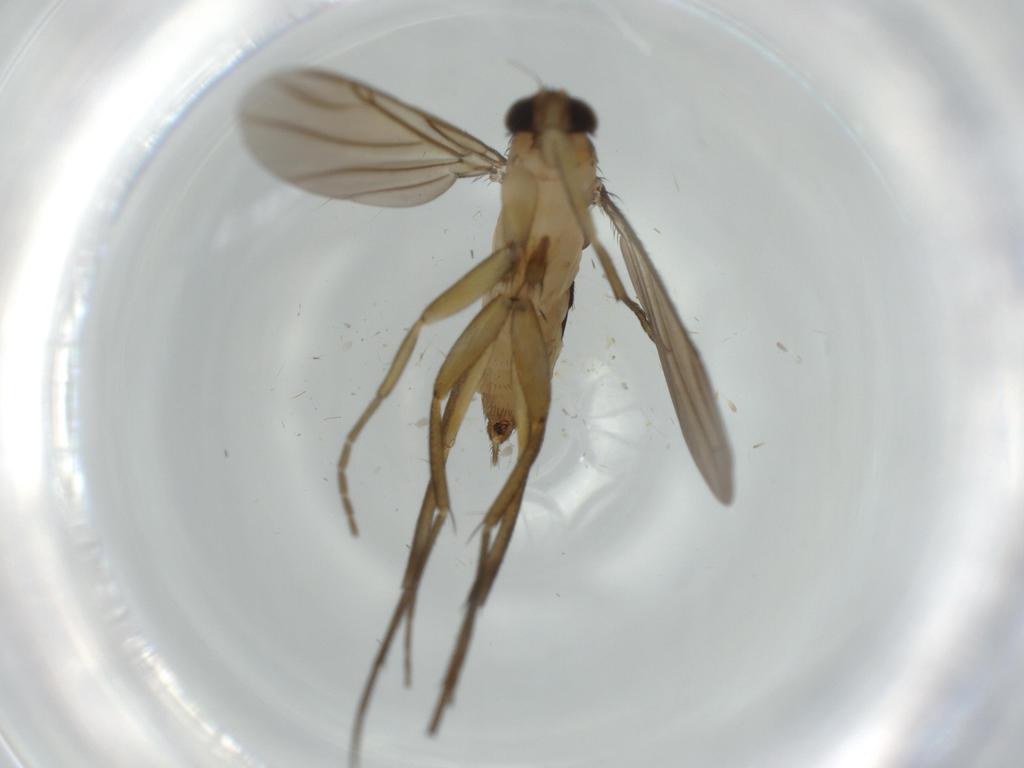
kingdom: Animalia
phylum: Arthropoda
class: Insecta
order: Diptera
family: Phoridae
